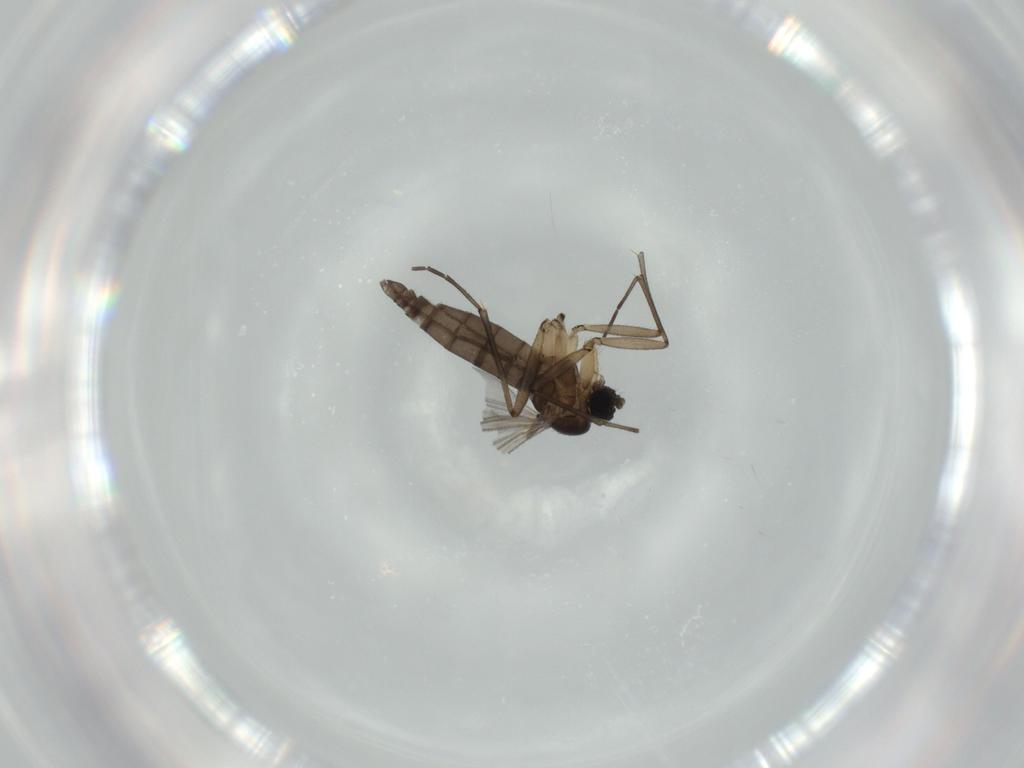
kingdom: Animalia
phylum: Arthropoda
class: Insecta
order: Diptera
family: Sciaridae
